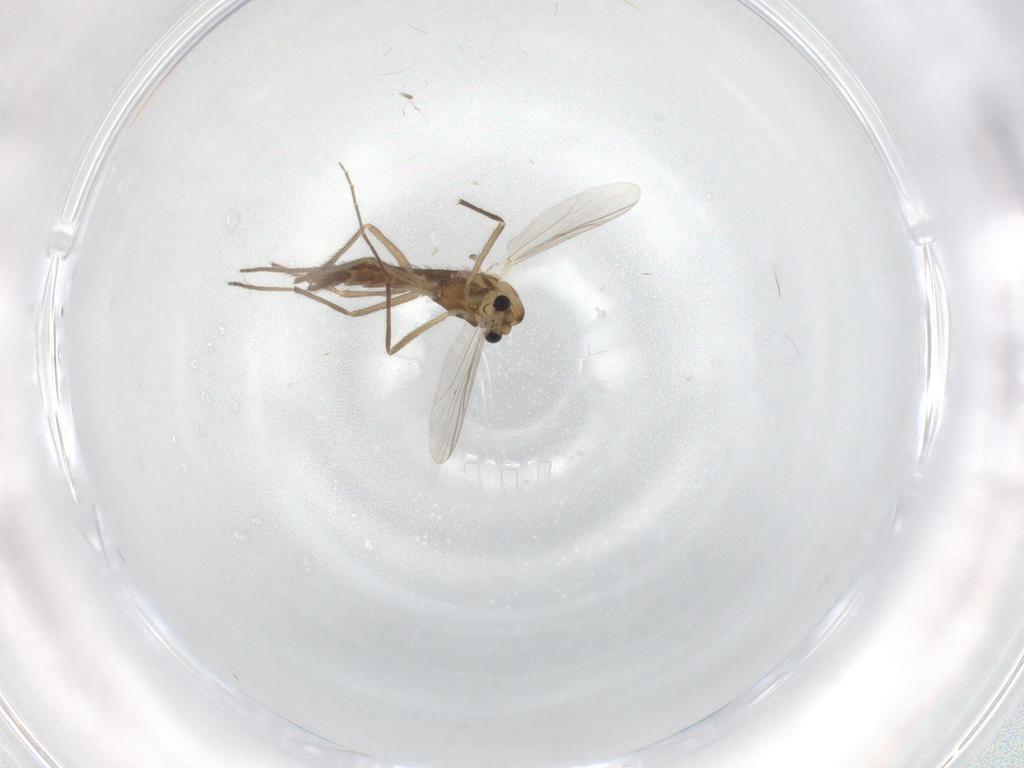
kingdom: Animalia
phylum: Arthropoda
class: Insecta
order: Diptera
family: Chironomidae
